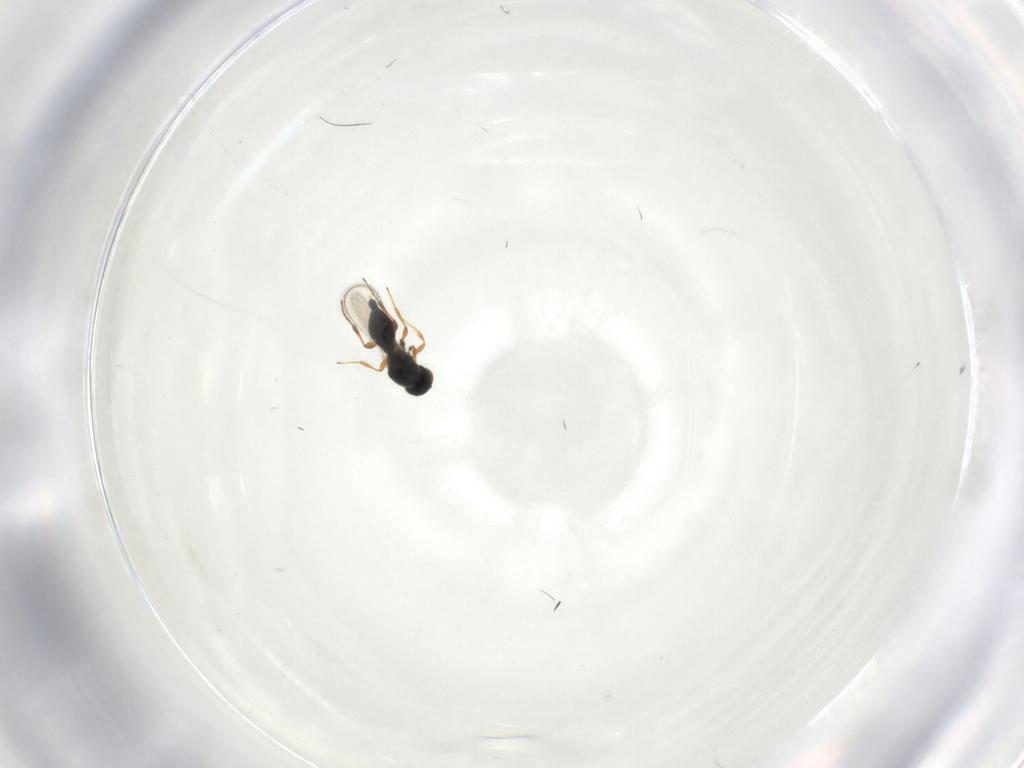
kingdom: Animalia
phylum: Arthropoda
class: Insecta
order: Hymenoptera
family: Platygastridae
